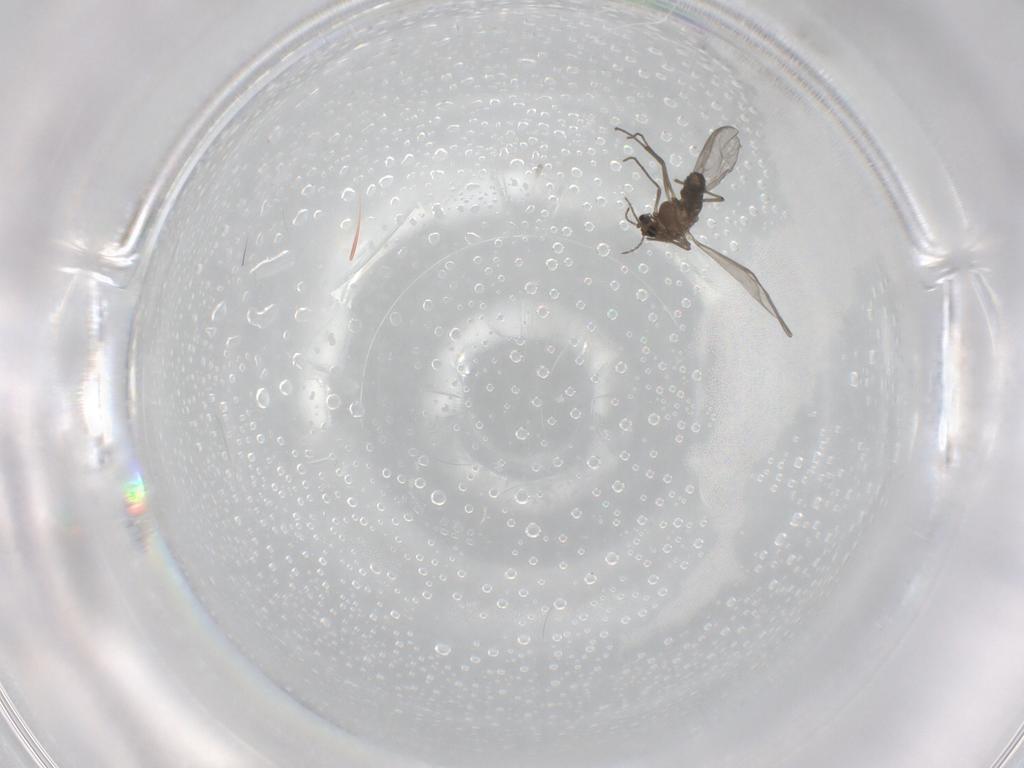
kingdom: Animalia
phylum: Arthropoda
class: Insecta
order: Diptera
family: Chironomidae
